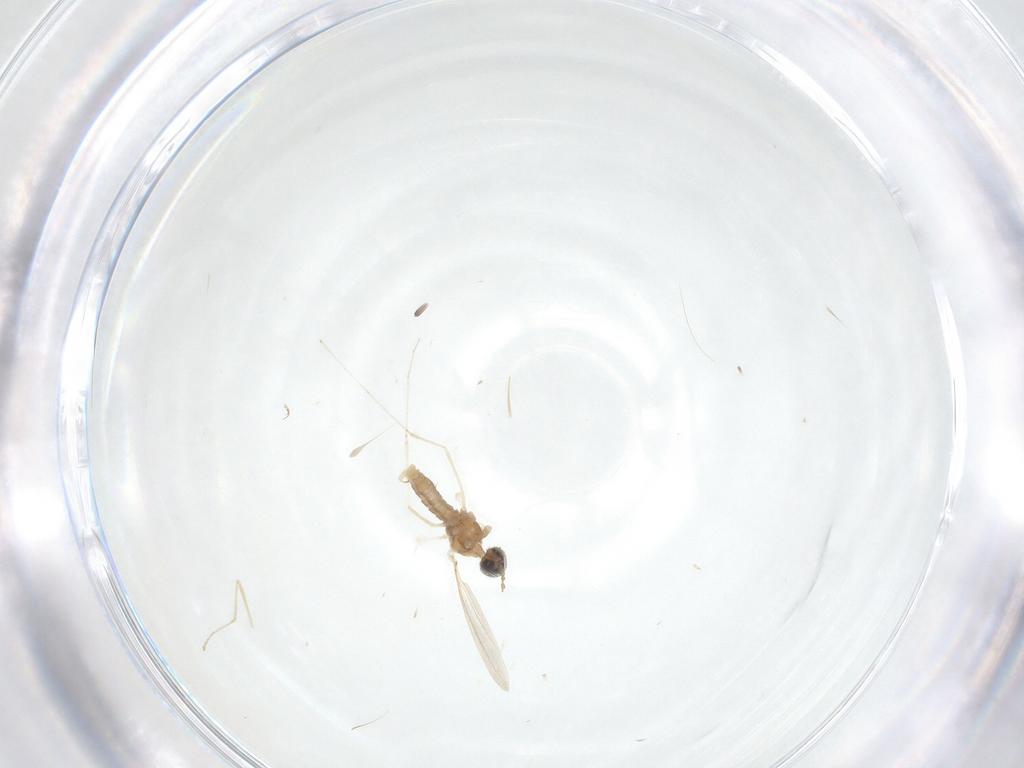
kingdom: Animalia
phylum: Arthropoda
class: Insecta
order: Diptera
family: Cecidomyiidae
